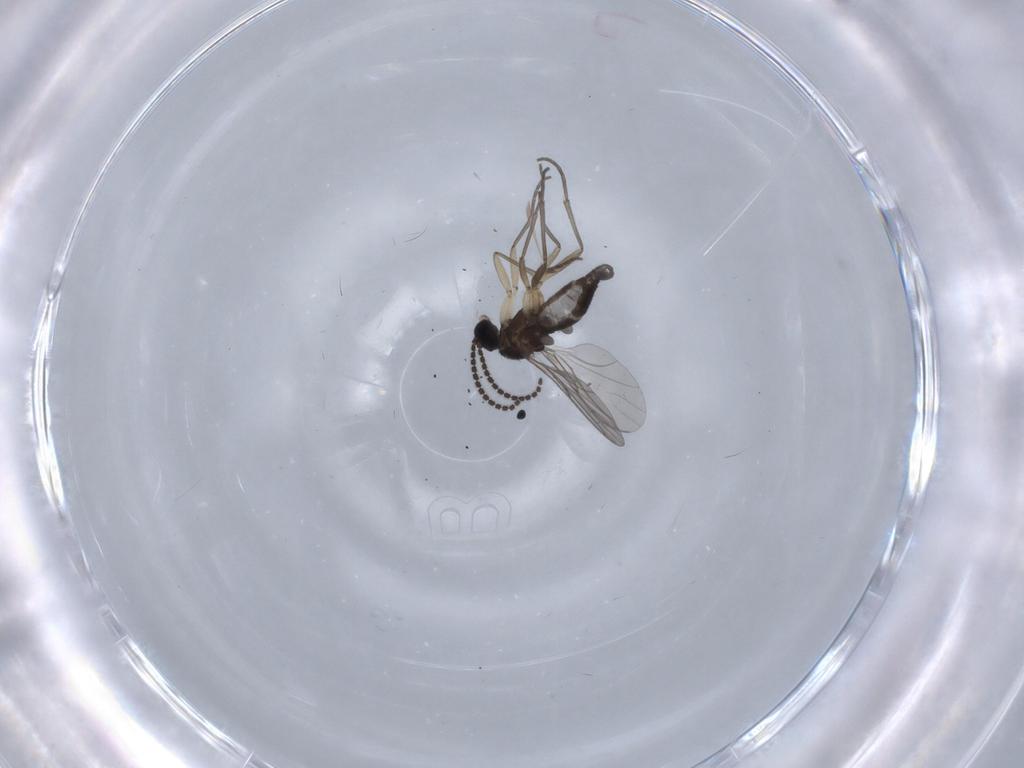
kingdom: Animalia
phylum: Arthropoda
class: Insecta
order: Diptera
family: Sciaridae
